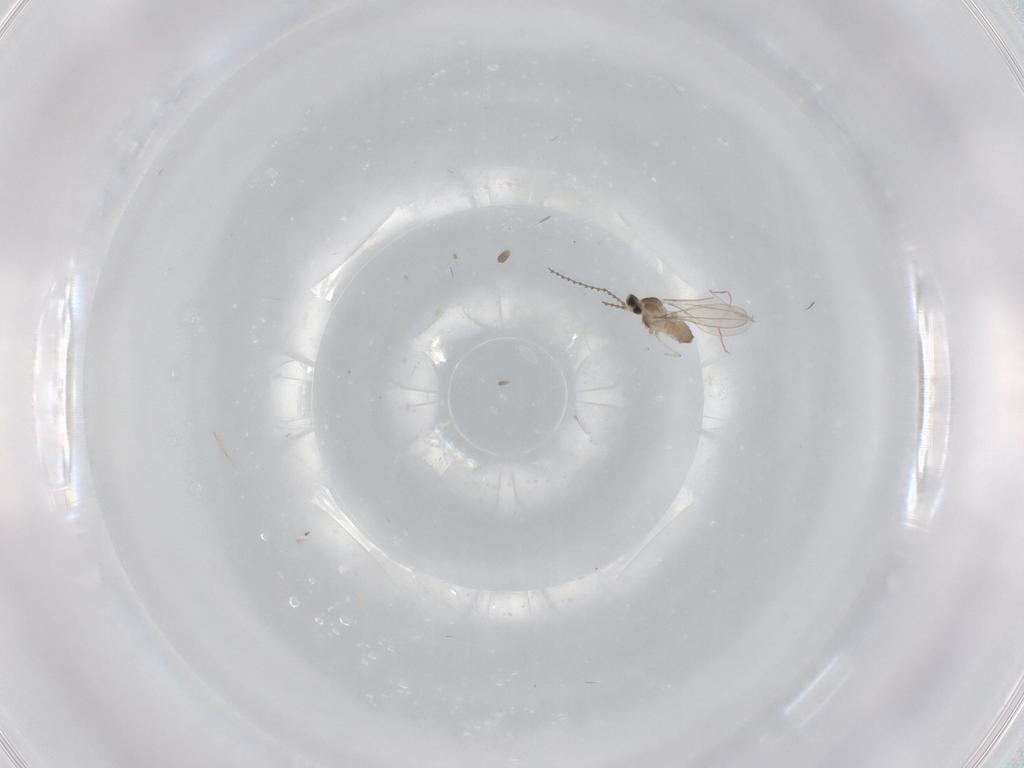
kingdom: Animalia
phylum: Arthropoda
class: Insecta
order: Diptera
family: Cecidomyiidae
